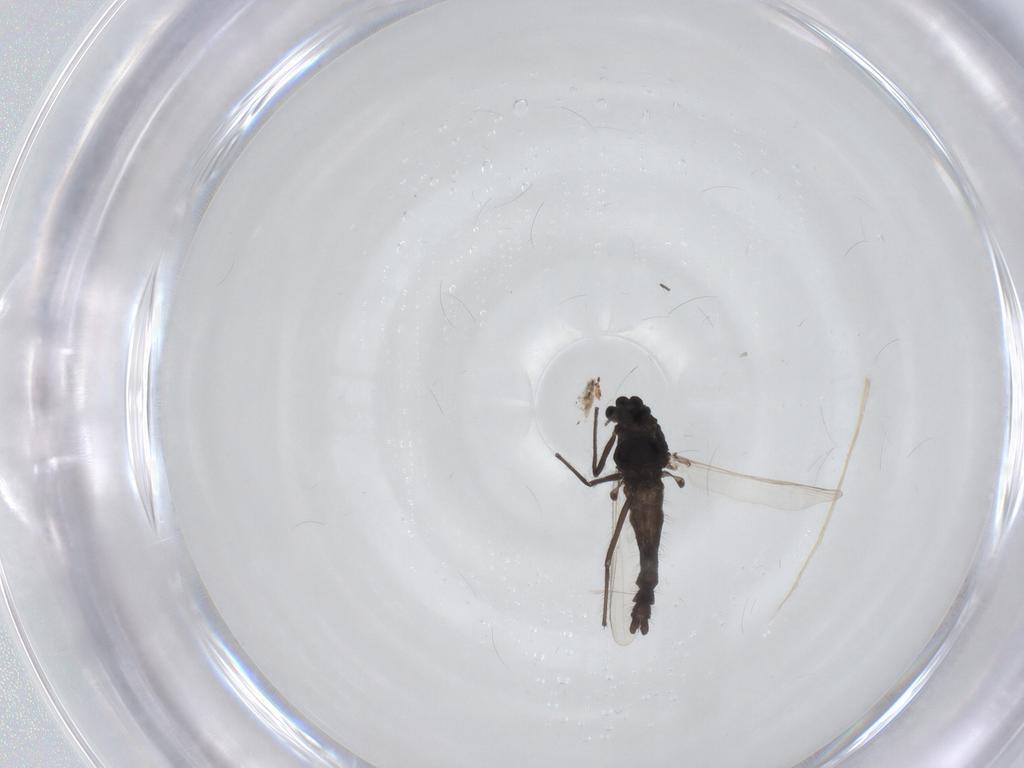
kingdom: Animalia
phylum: Arthropoda
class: Insecta
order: Diptera
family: Chironomidae
